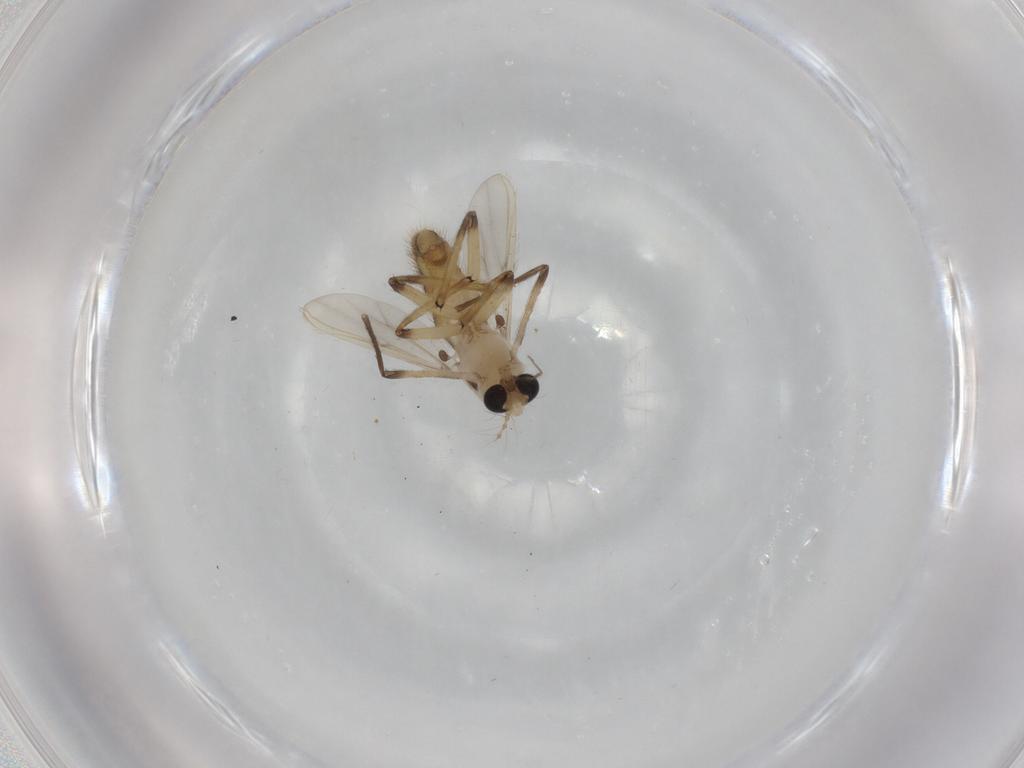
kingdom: Animalia
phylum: Arthropoda
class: Insecta
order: Diptera
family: Chironomidae
